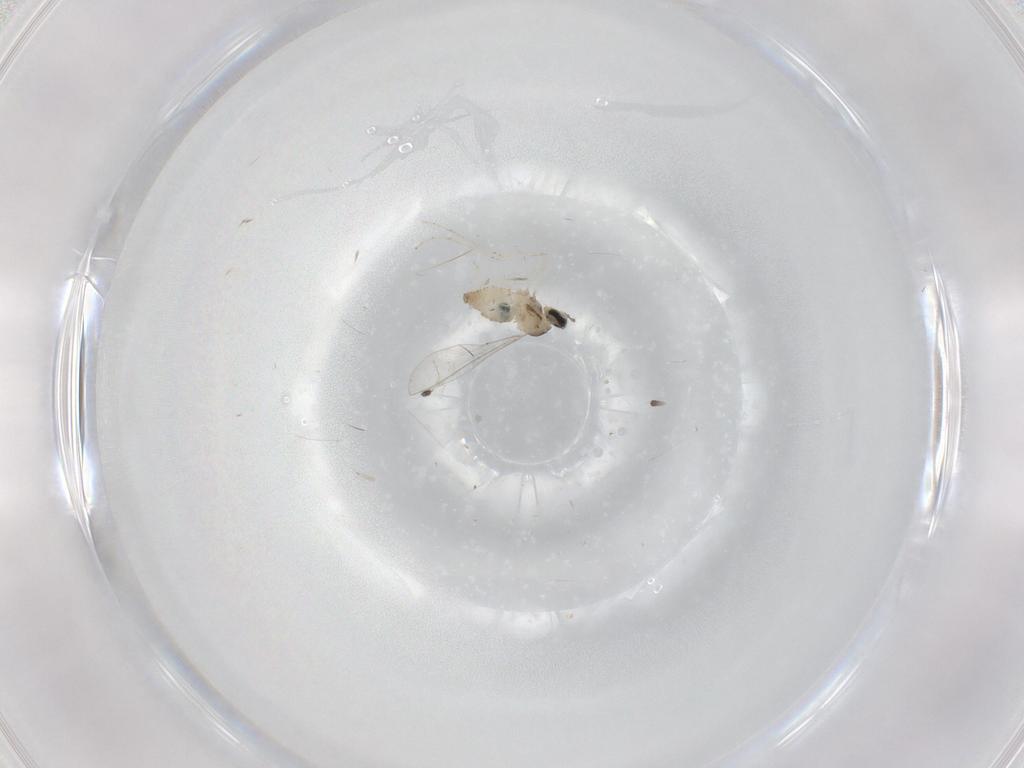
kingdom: Animalia
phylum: Arthropoda
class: Insecta
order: Diptera
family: Cecidomyiidae
